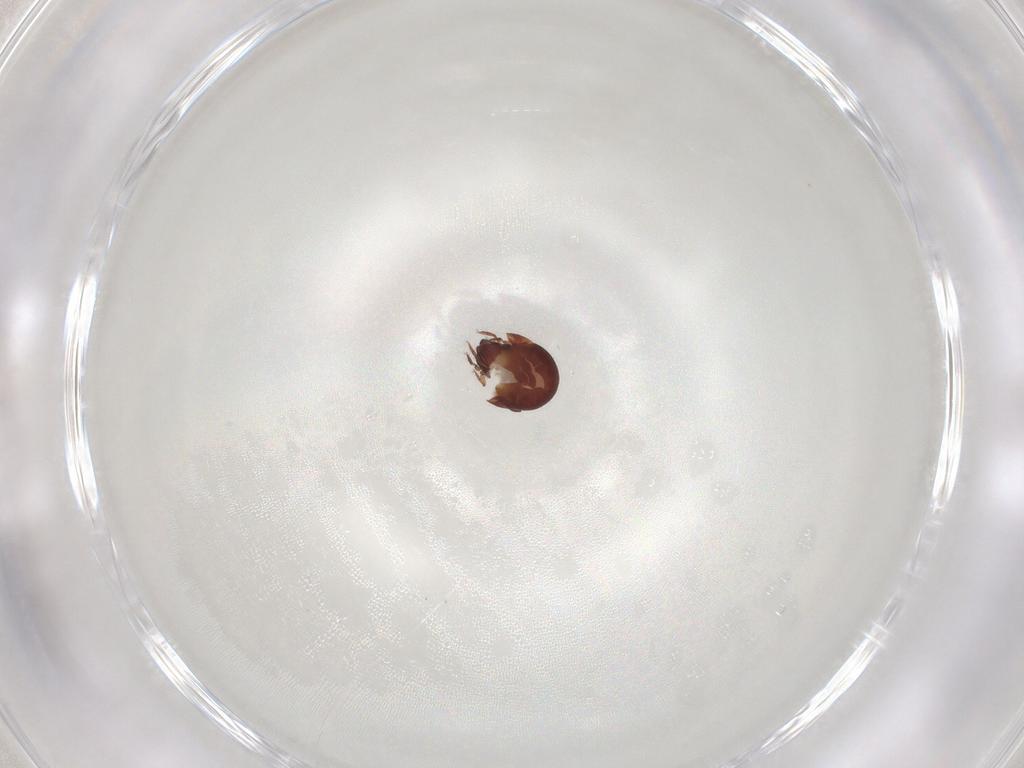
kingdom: Animalia
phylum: Arthropoda
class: Arachnida
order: Sarcoptiformes
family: Humerobatidae
